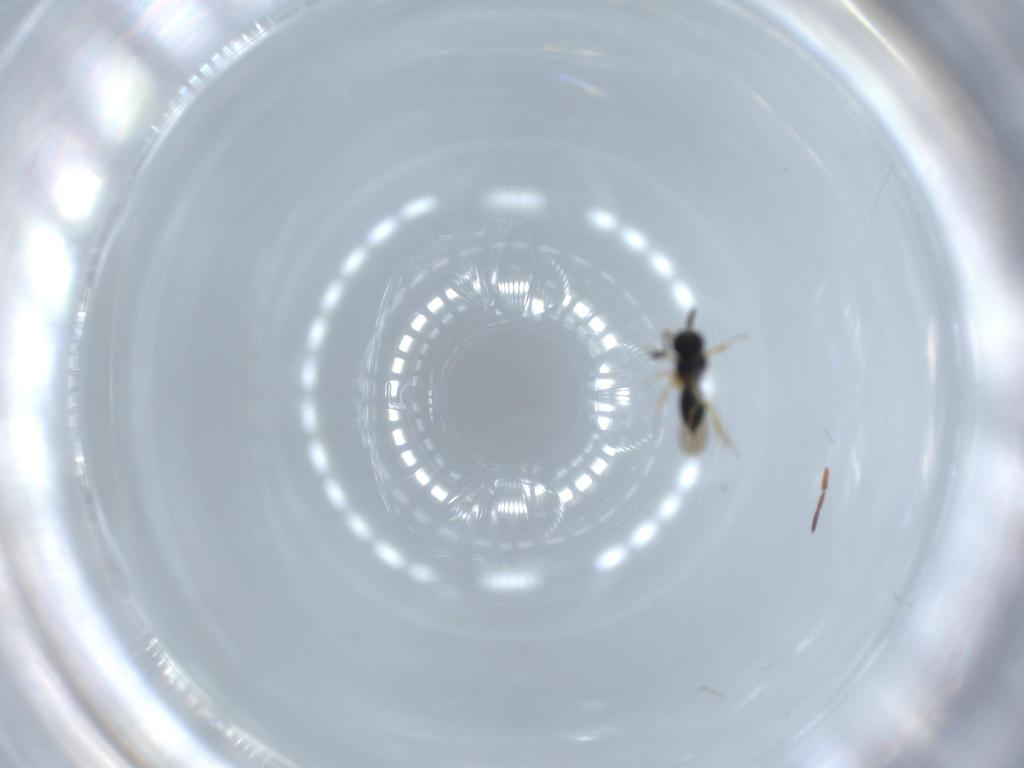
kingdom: Animalia
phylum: Arthropoda
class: Insecta
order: Hymenoptera
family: Scelionidae
